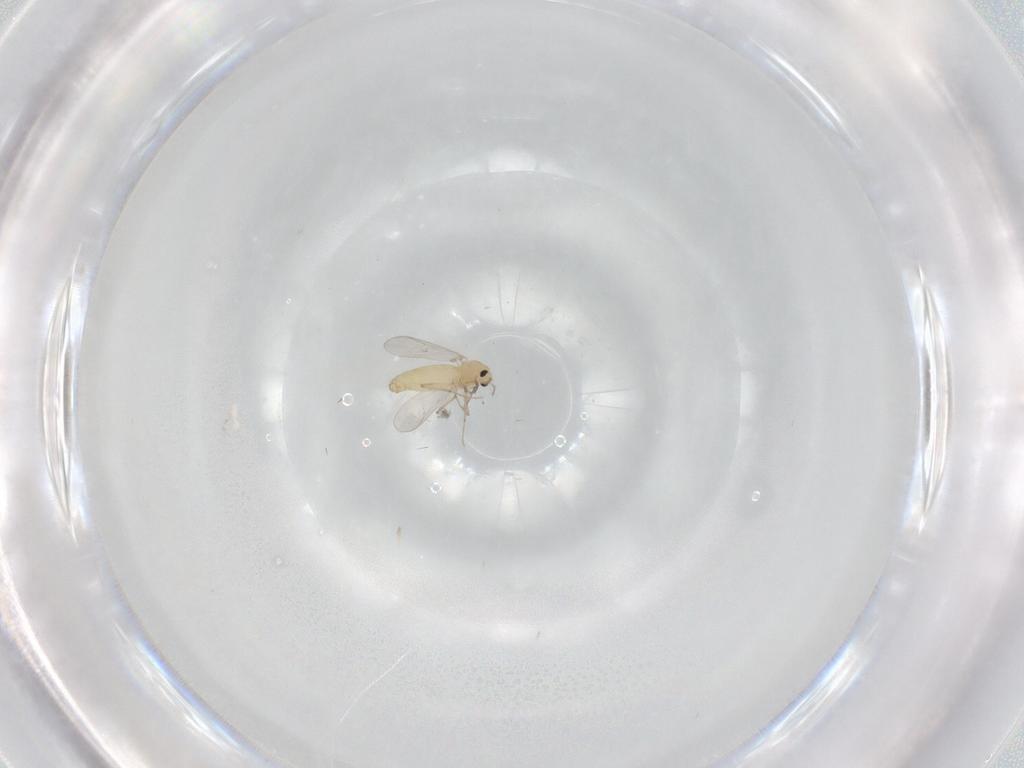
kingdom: Animalia
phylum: Arthropoda
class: Insecta
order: Diptera
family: Chironomidae
